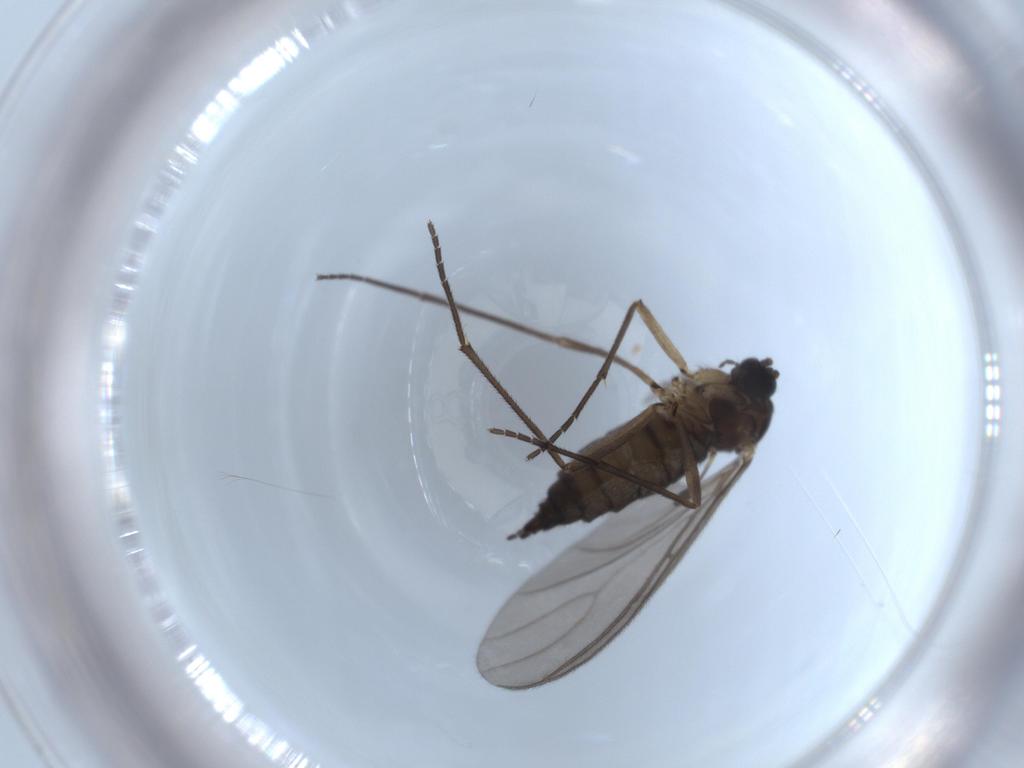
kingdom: Animalia
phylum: Arthropoda
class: Insecta
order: Diptera
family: Sciaridae
